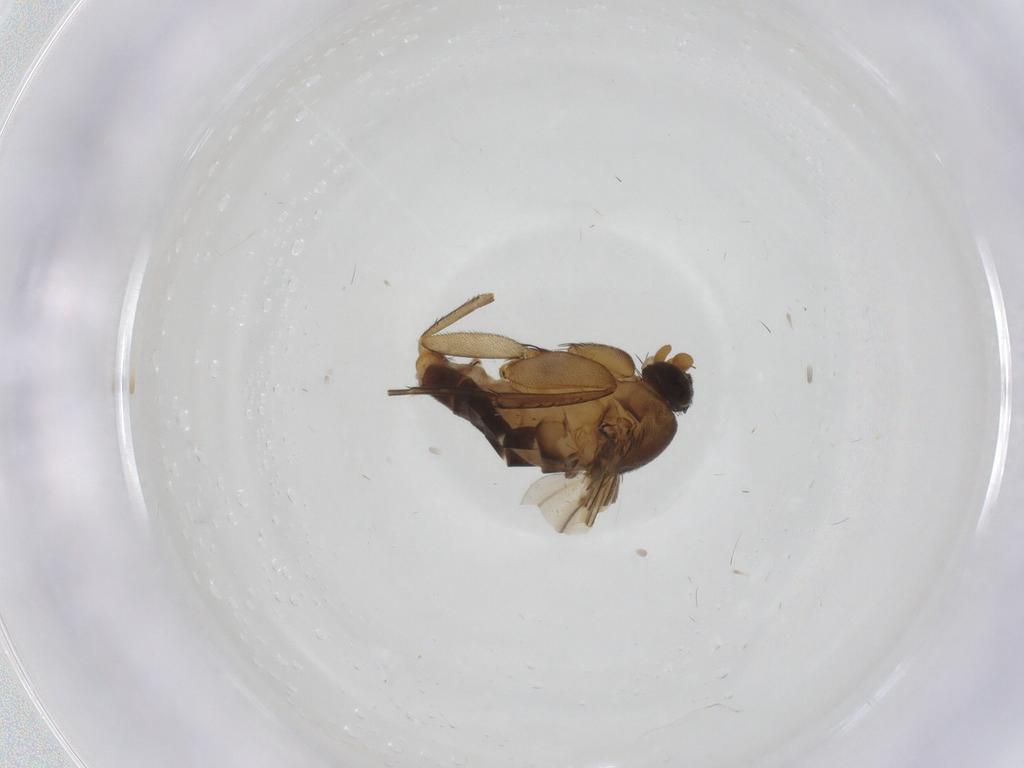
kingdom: Animalia
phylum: Arthropoda
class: Insecta
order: Diptera
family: Phoridae
